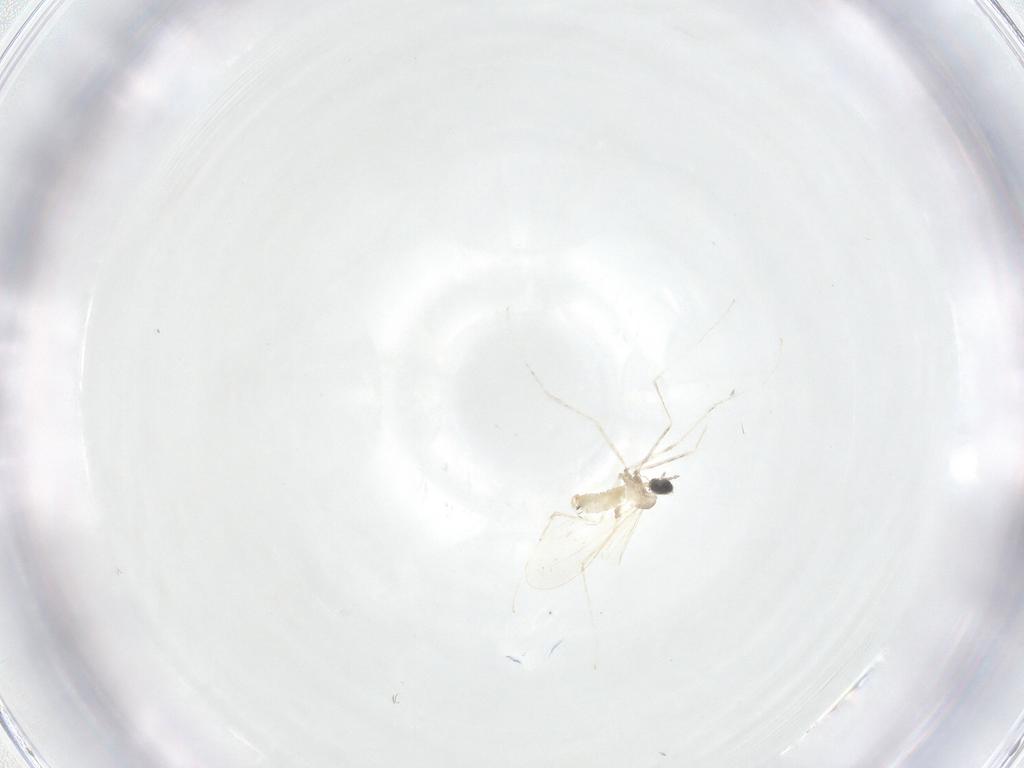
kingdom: Animalia
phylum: Arthropoda
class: Insecta
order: Diptera
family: Cecidomyiidae
